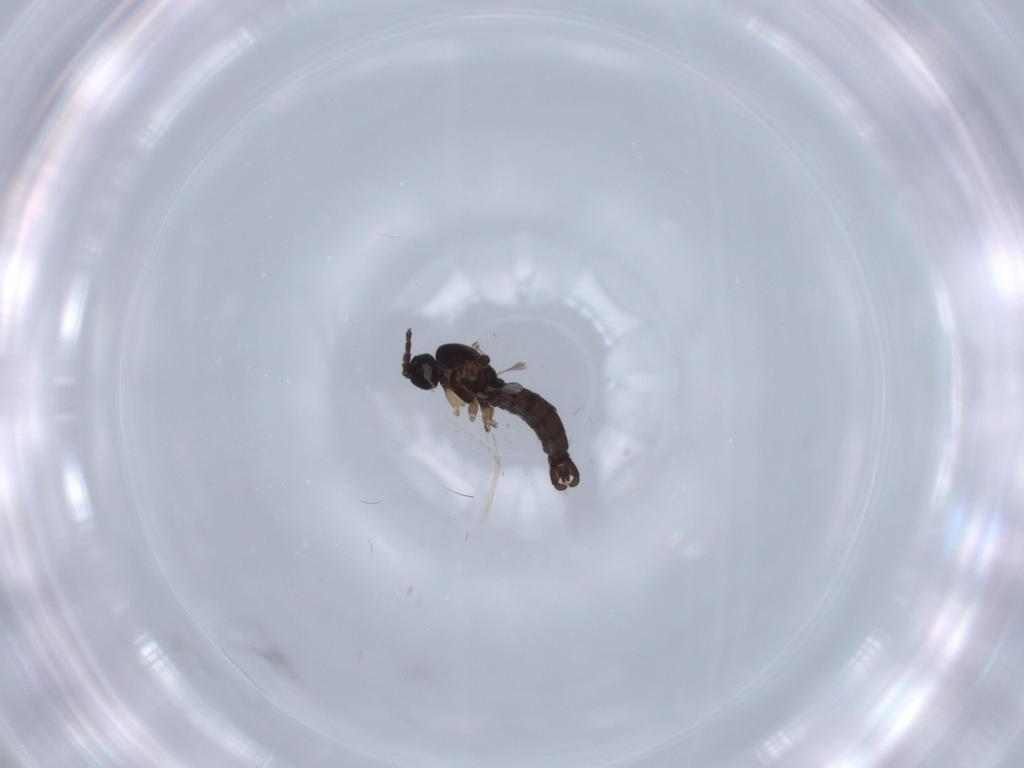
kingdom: Animalia
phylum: Arthropoda
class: Insecta
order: Diptera
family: Sciaridae
